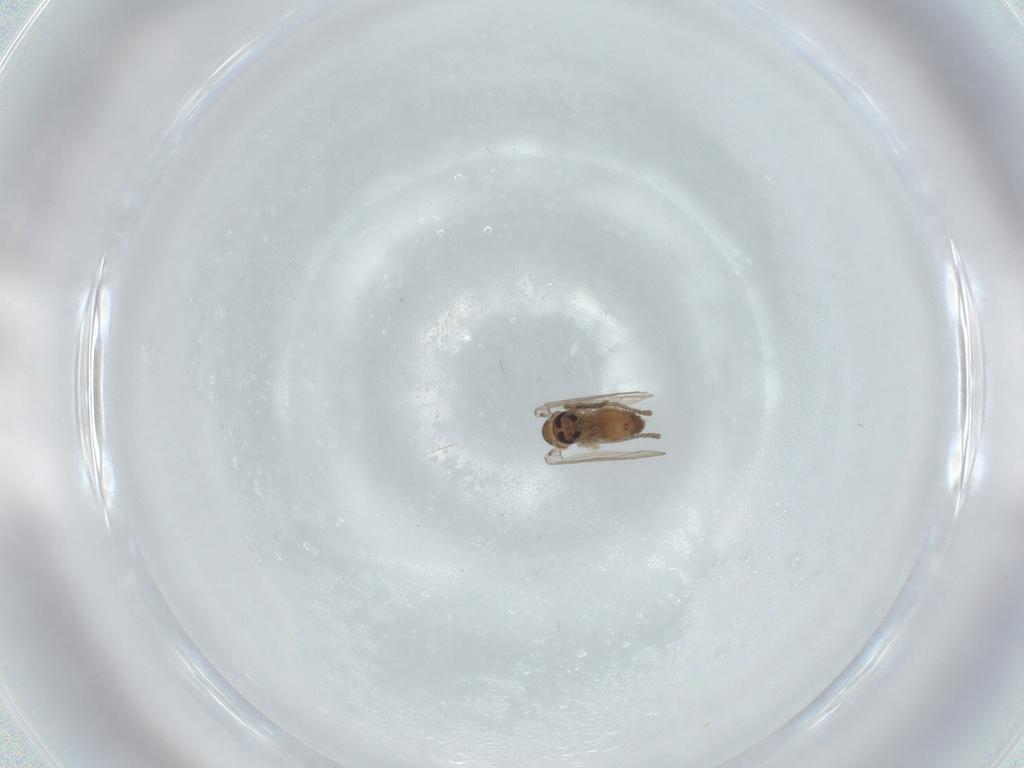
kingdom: Animalia
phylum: Arthropoda
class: Insecta
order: Diptera
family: Psychodidae
